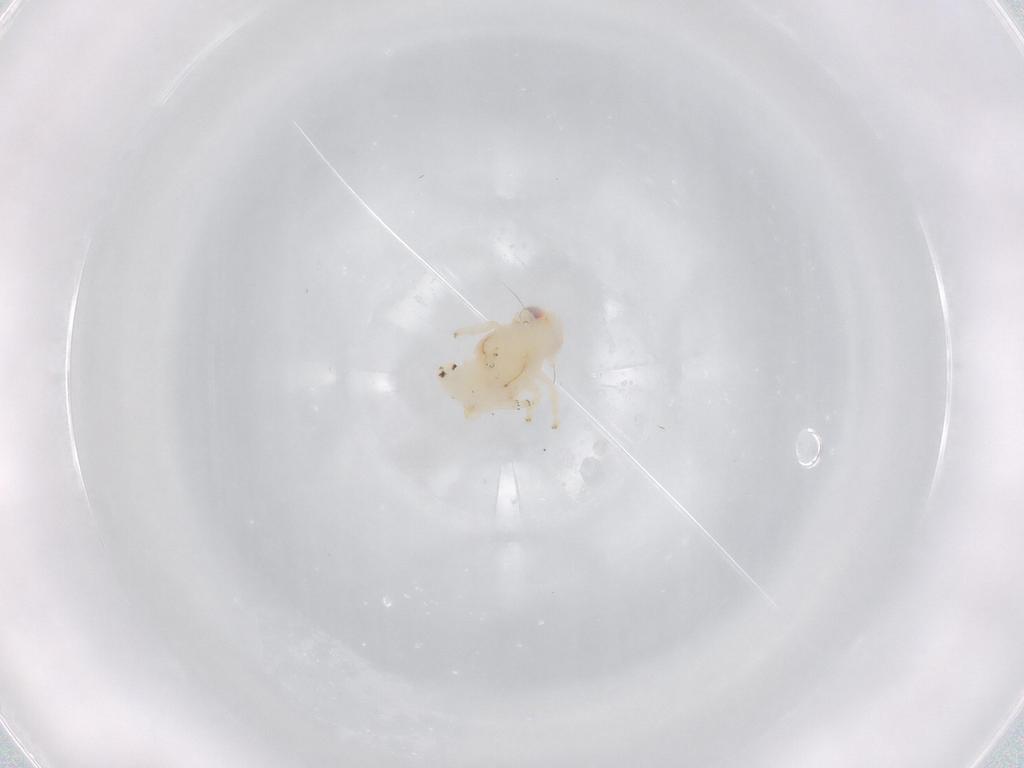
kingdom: Animalia
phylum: Arthropoda
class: Insecta
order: Hemiptera
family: Nogodinidae
